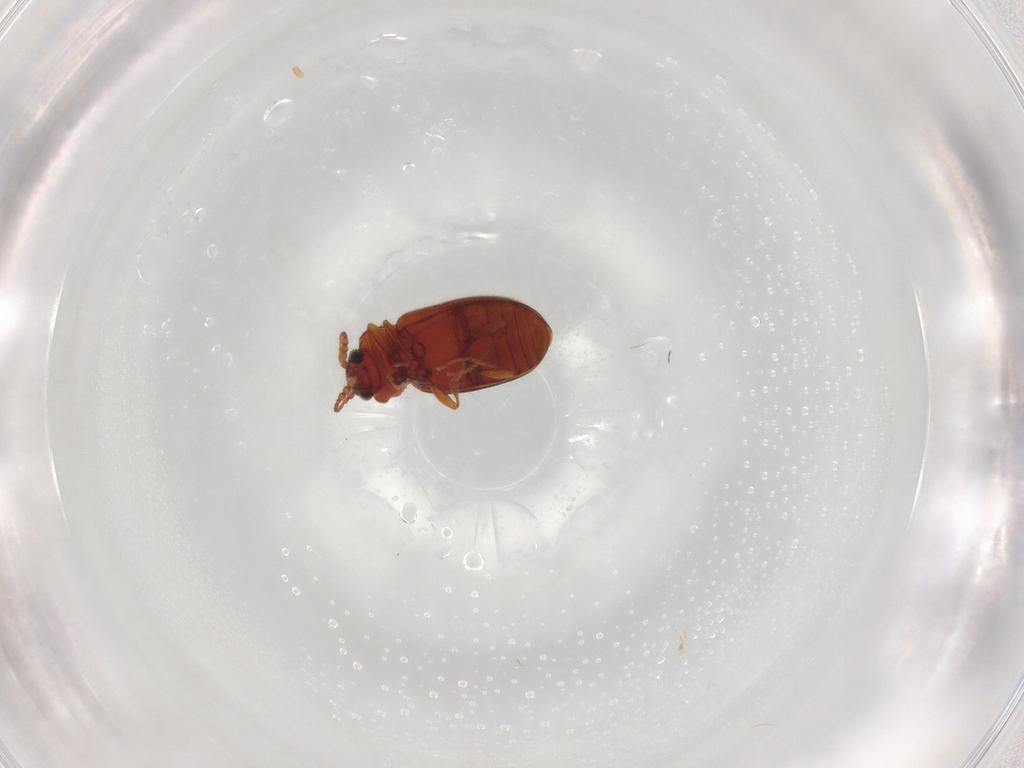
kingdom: Animalia
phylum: Arthropoda
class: Insecta
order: Coleoptera
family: Cryptophagidae
